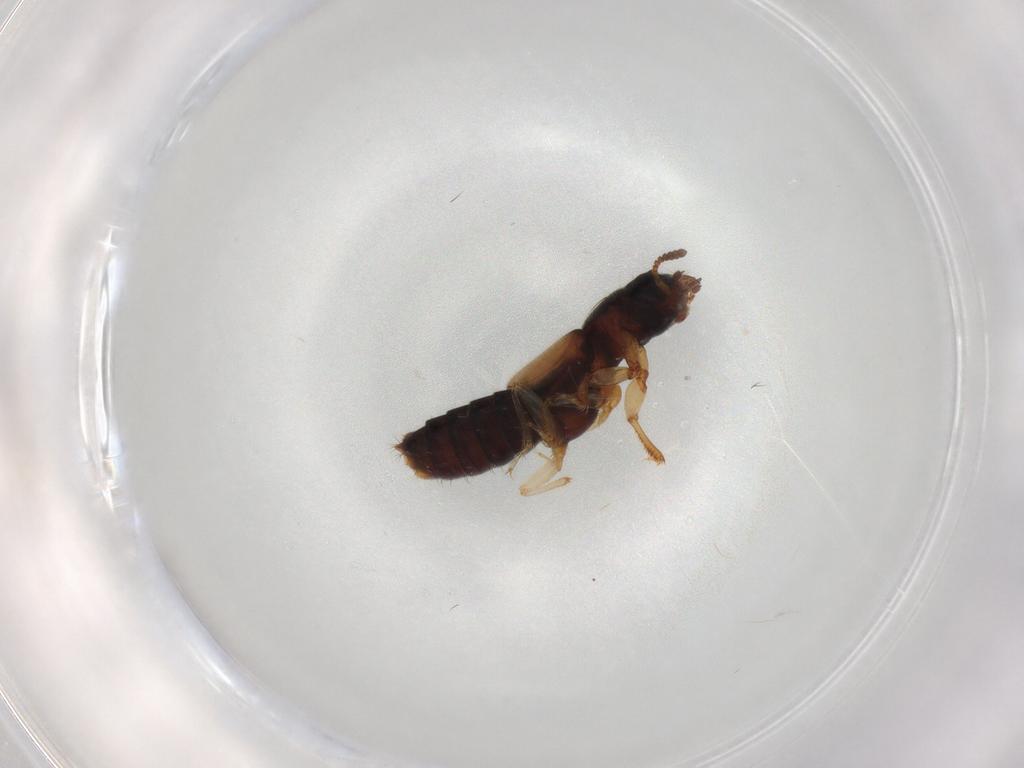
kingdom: Animalia
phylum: Arthropoda
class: Insecta
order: Coleoptera
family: Staphylinidae
